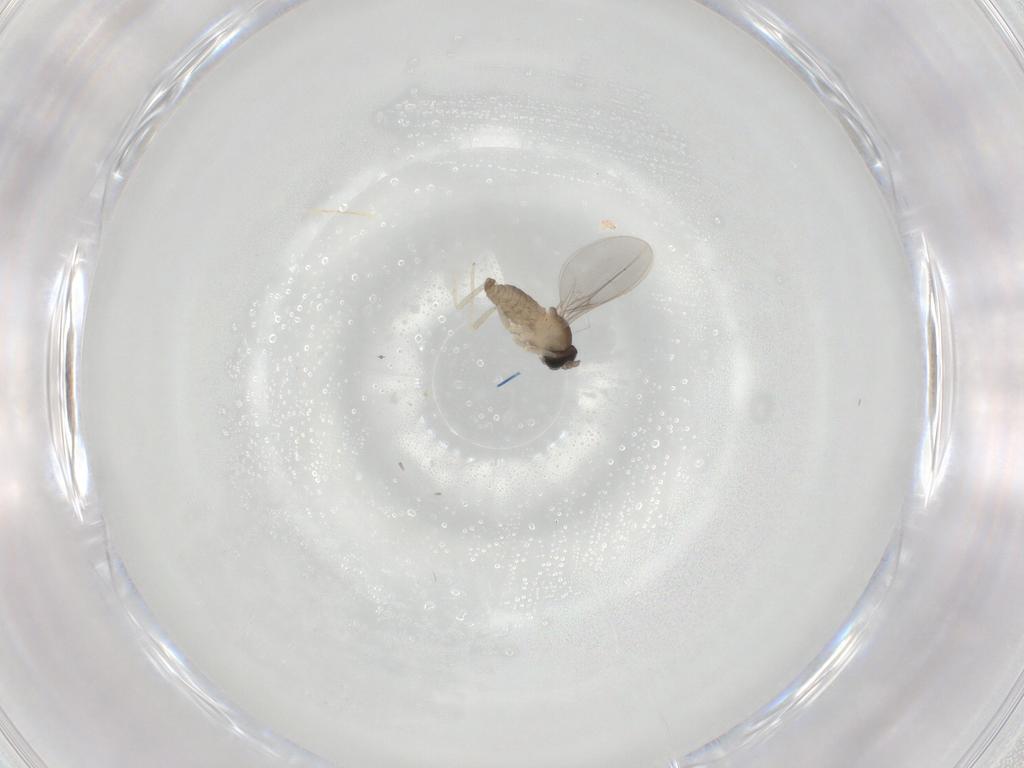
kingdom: Animalia
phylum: Arthropoda
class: Insecta
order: Diptera
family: Cecidomyiidae
